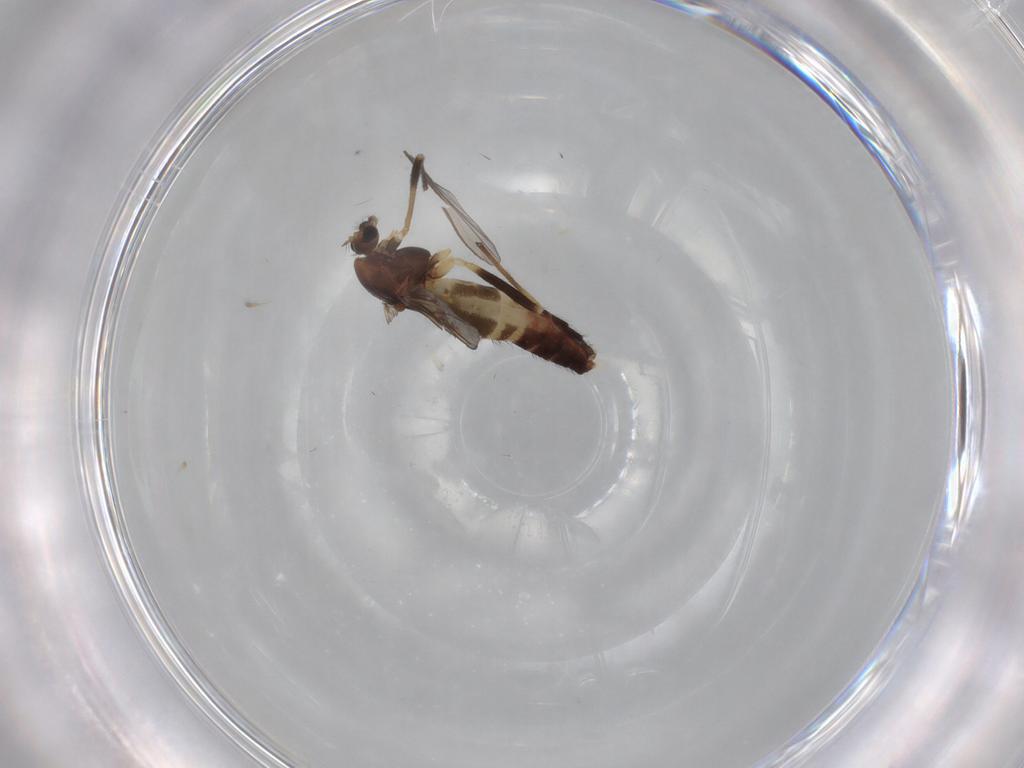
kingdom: Animalia
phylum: Arthropoda
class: Insecta
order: Diptera
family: Chironomidae
